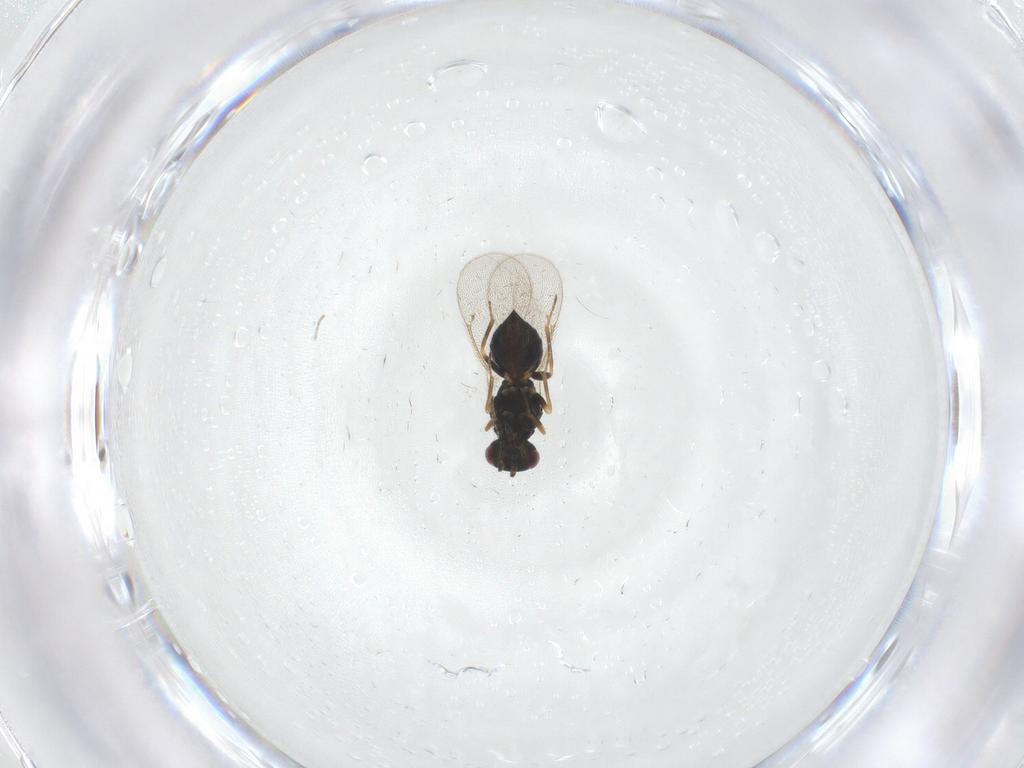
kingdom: Animalia
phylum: Arthropoda
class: Insecta
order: Hymenoptera
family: Eulophidae
